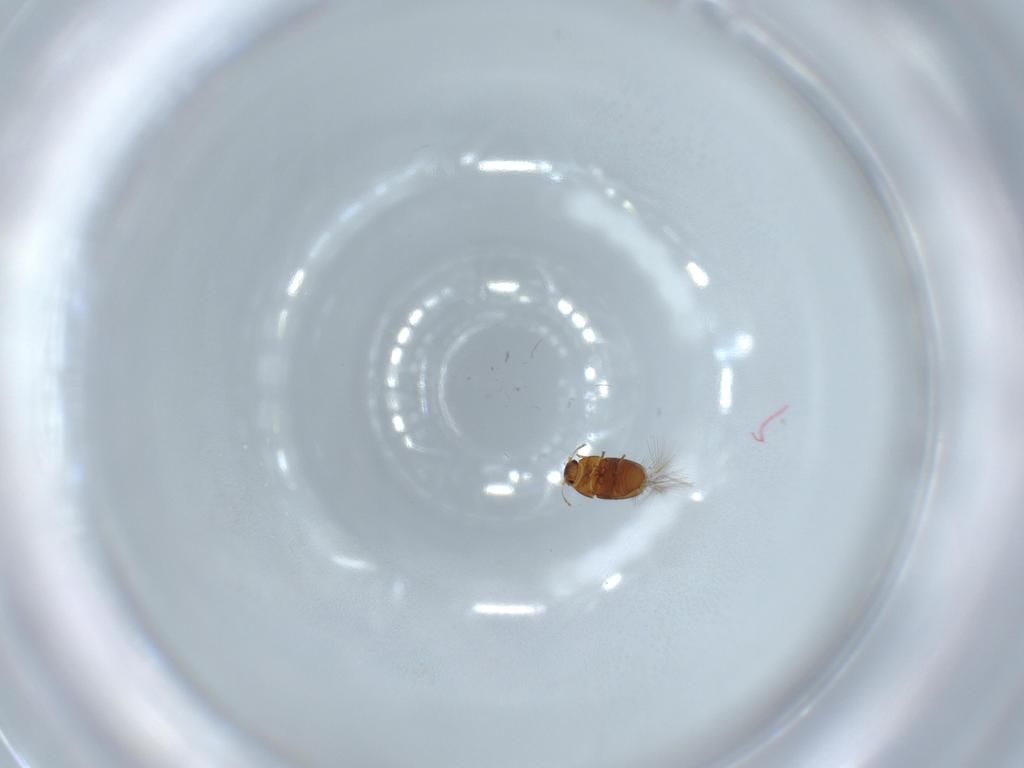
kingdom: Animalia
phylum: Arthropoda
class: Insecta
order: Coleoptera
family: Ptiliidae
